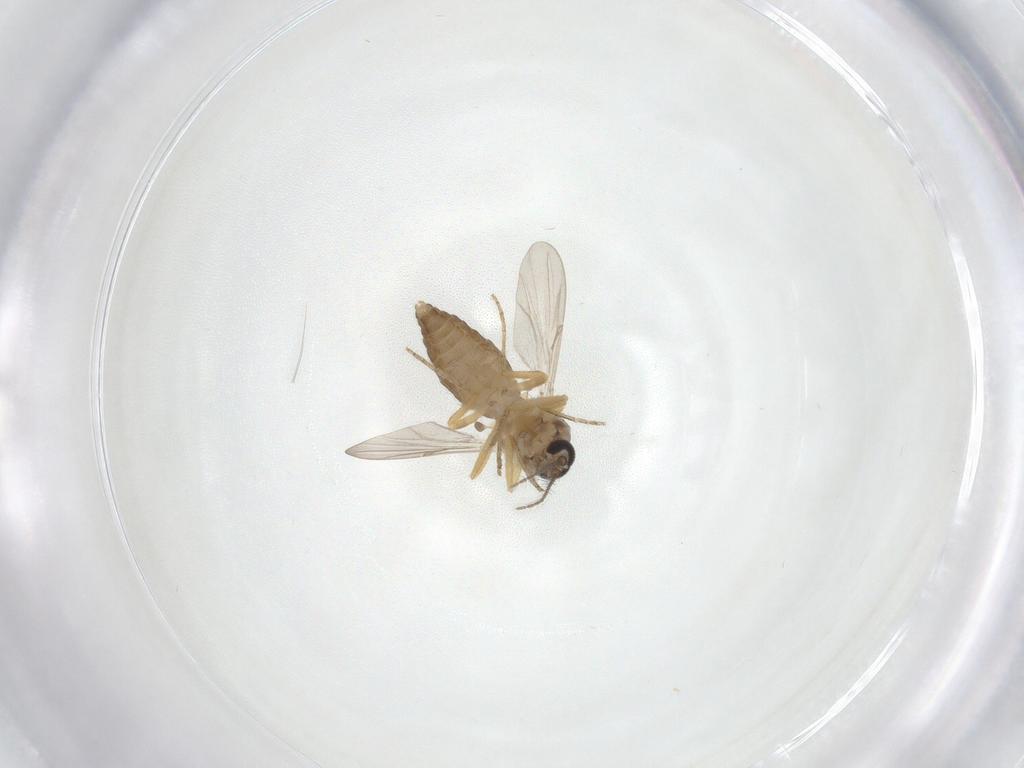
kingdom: Animalia
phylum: Arthropoda
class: Insecta
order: Diptera
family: Ceratopogonidae
